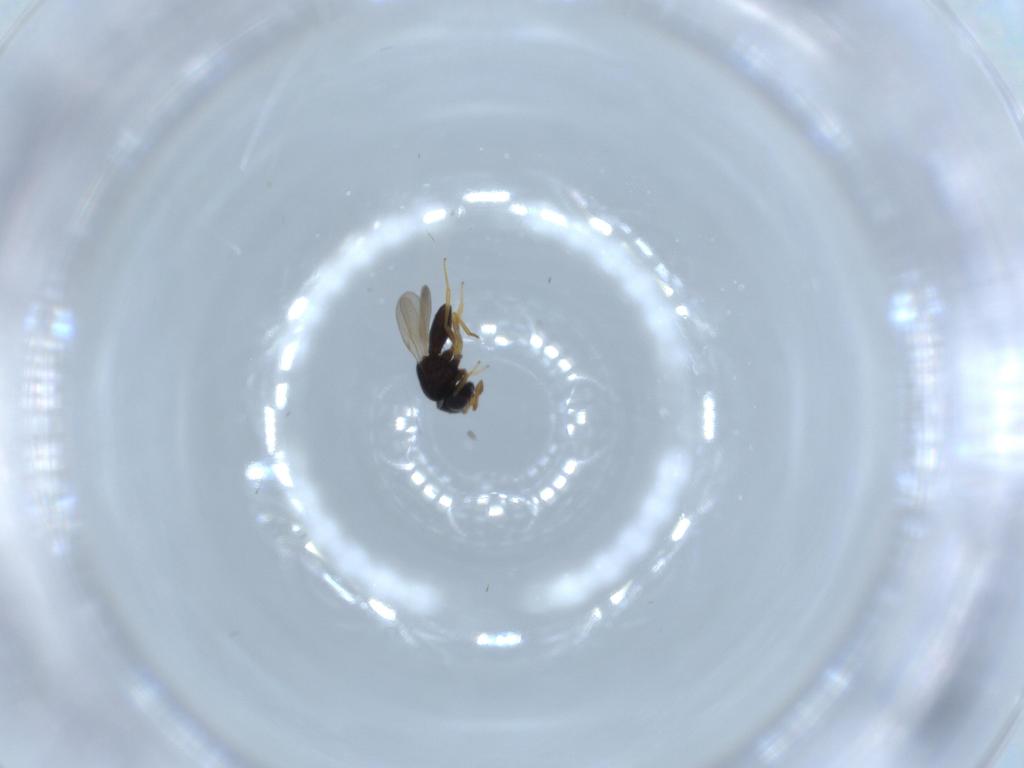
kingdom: Animalia
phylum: Arthropoda
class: Insecta
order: Hymenoptera
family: Scelionidae
